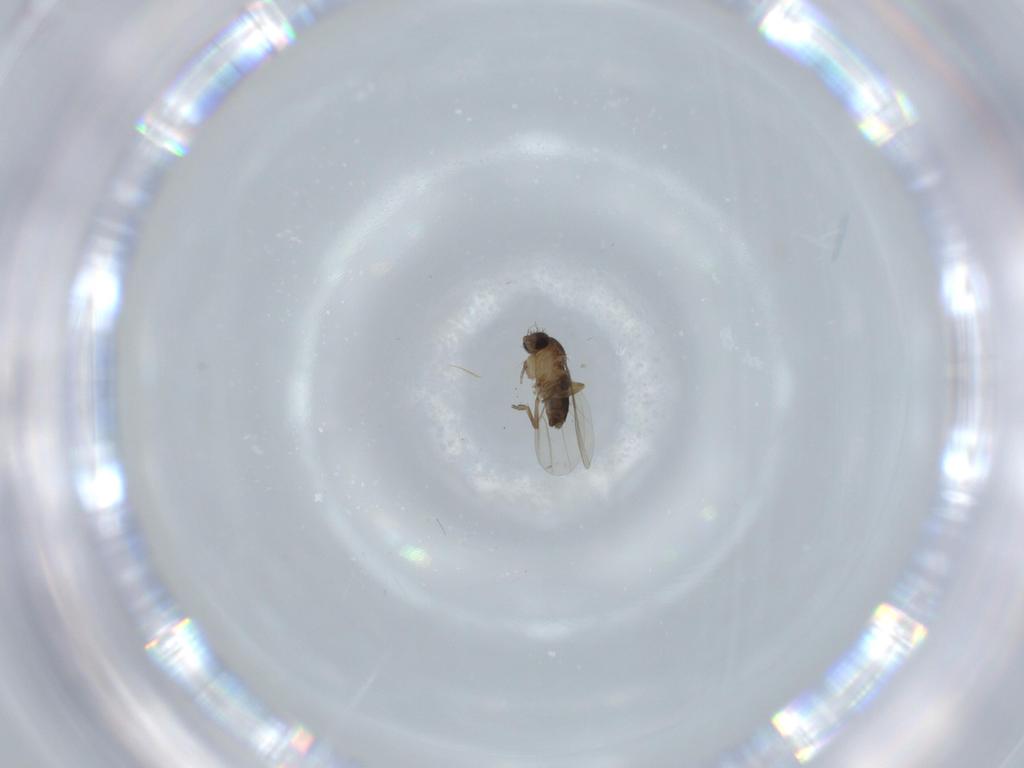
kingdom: Animalia
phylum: Arthropoda
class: Insecta
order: Diptera
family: Phoridae
